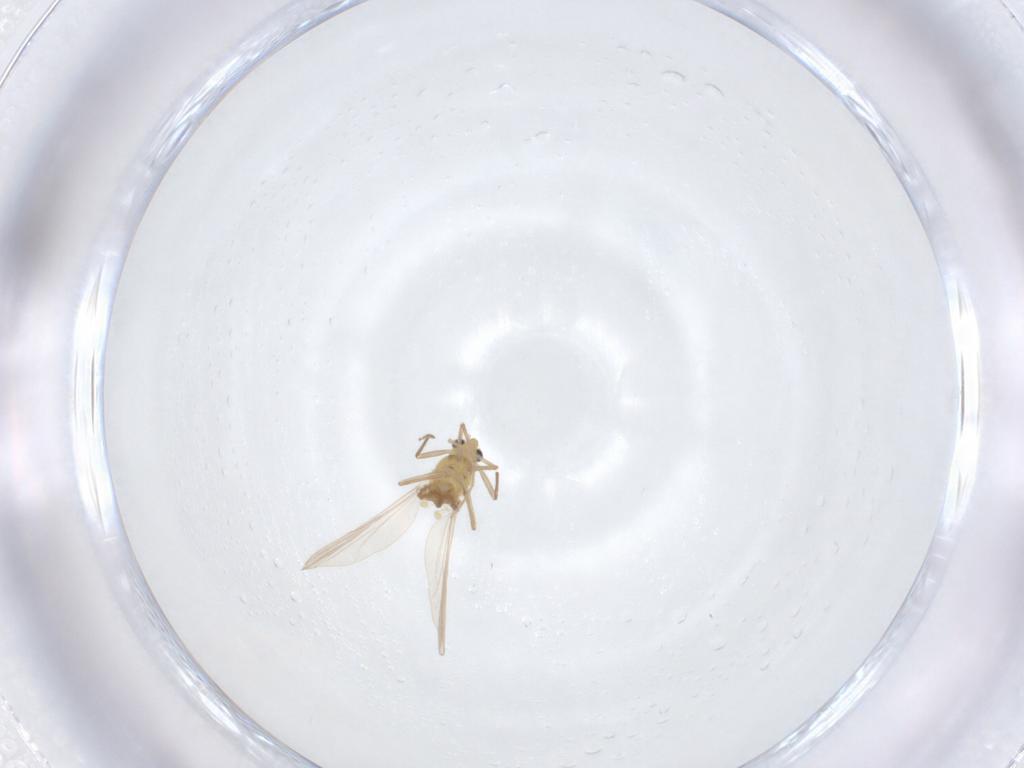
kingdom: Animalia
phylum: Arthropoda
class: Insecta
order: Diptera
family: Chironomidae
